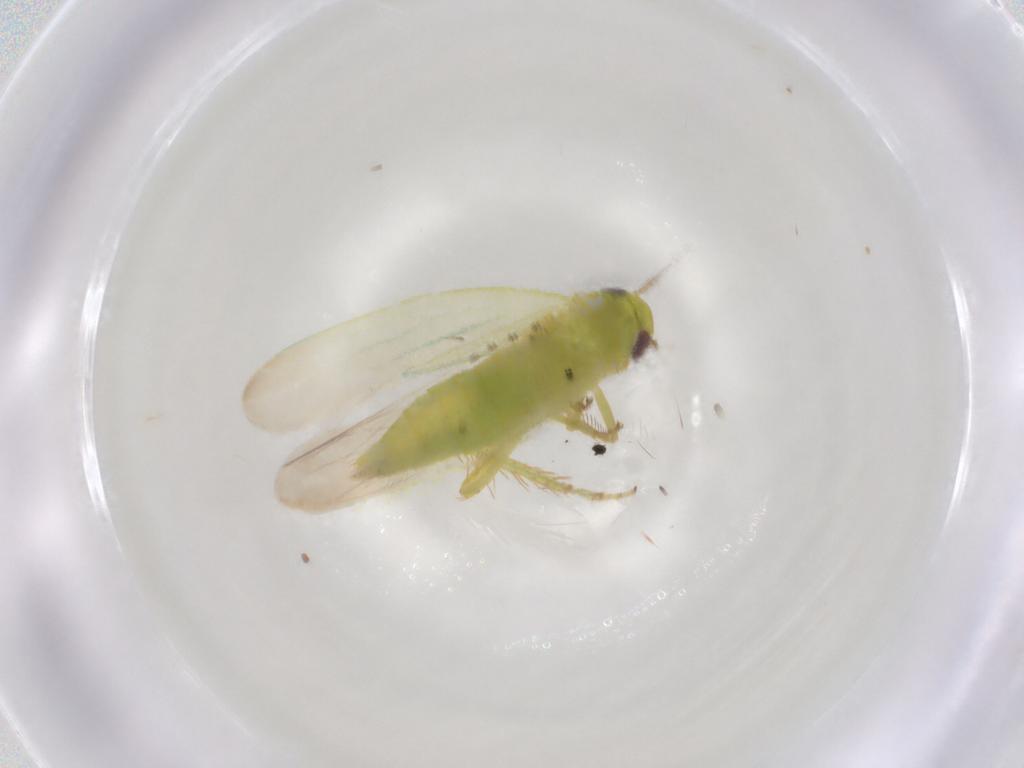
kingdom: Animalia
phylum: Arthropoda
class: Insecta
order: Hemiptera
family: Cicadellidae
